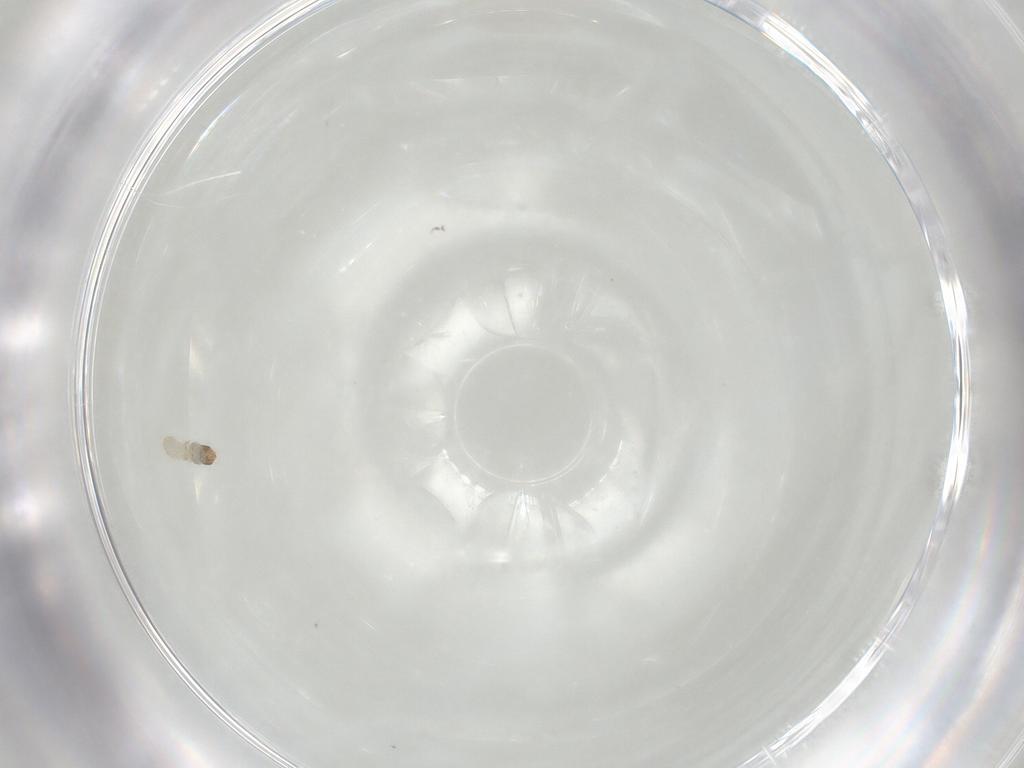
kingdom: Animalia
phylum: Arthropoda
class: Insecta
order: Lepidoptera
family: Lecithoceridae
